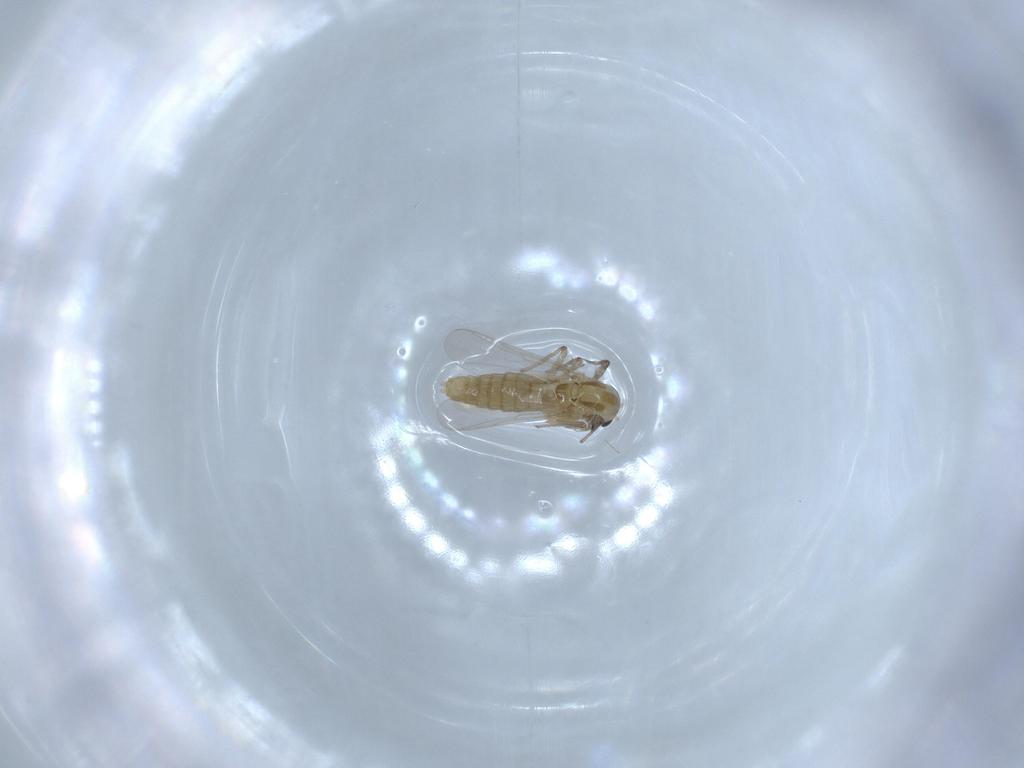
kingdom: Animalia
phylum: Arthropoda
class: Insecta
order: Diptera
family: Chironomidae
